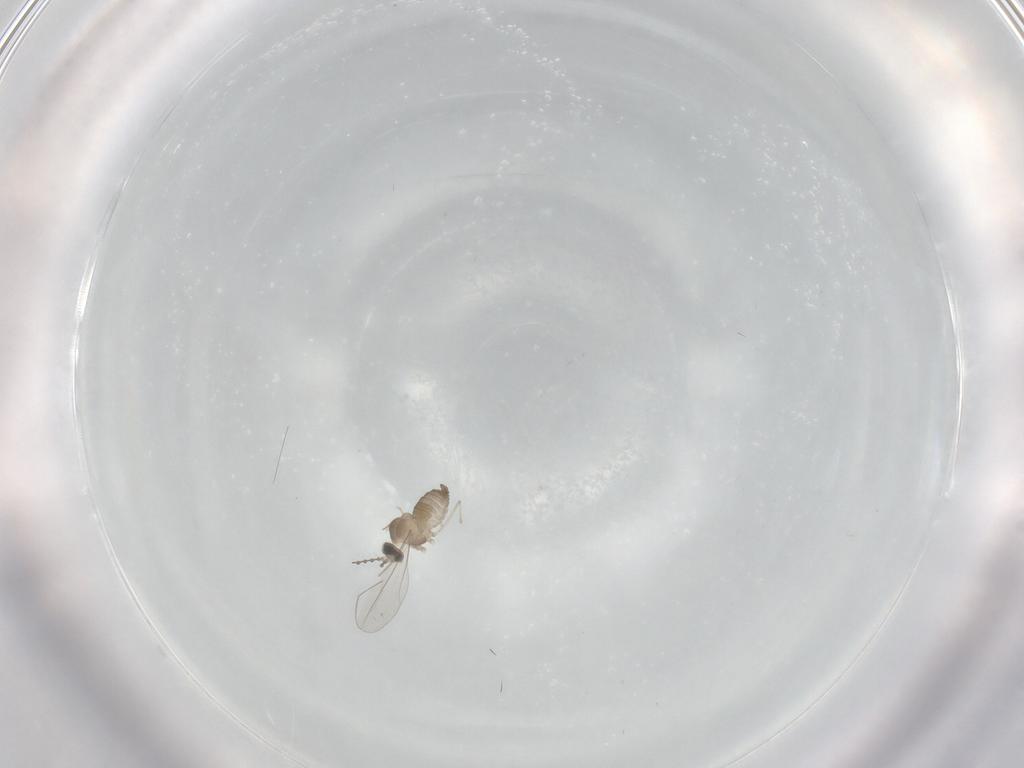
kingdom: Animalia
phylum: Arthropoda
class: Insecta
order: Diptera
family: Cecidomyiidae
